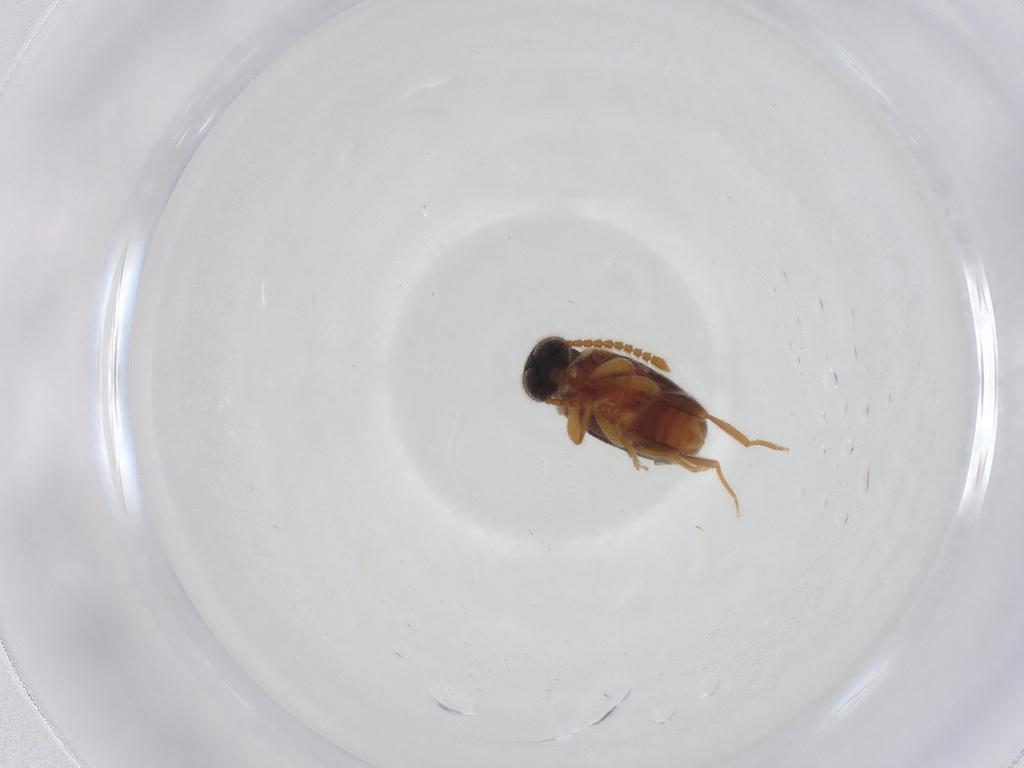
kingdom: Animalia
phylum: Arthropoda
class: Insecta
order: Coleoptera
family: Aderidae
